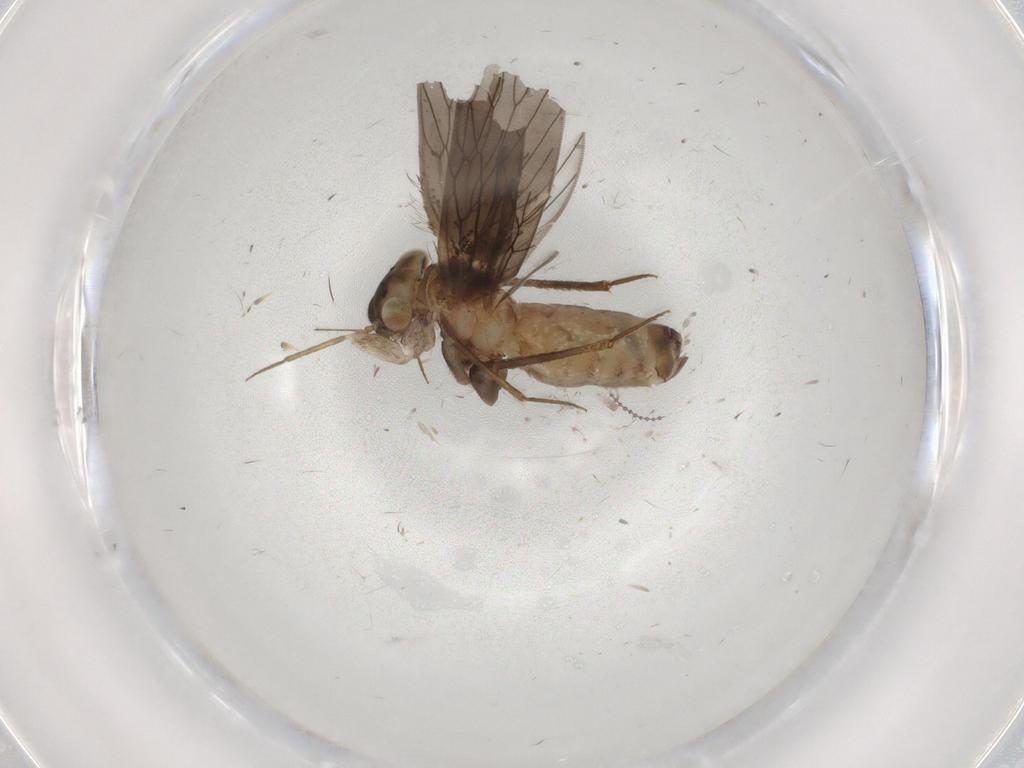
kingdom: Animalia
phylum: Arthropoda
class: Insecta
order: Psocodea
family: Lepidopsocidae
